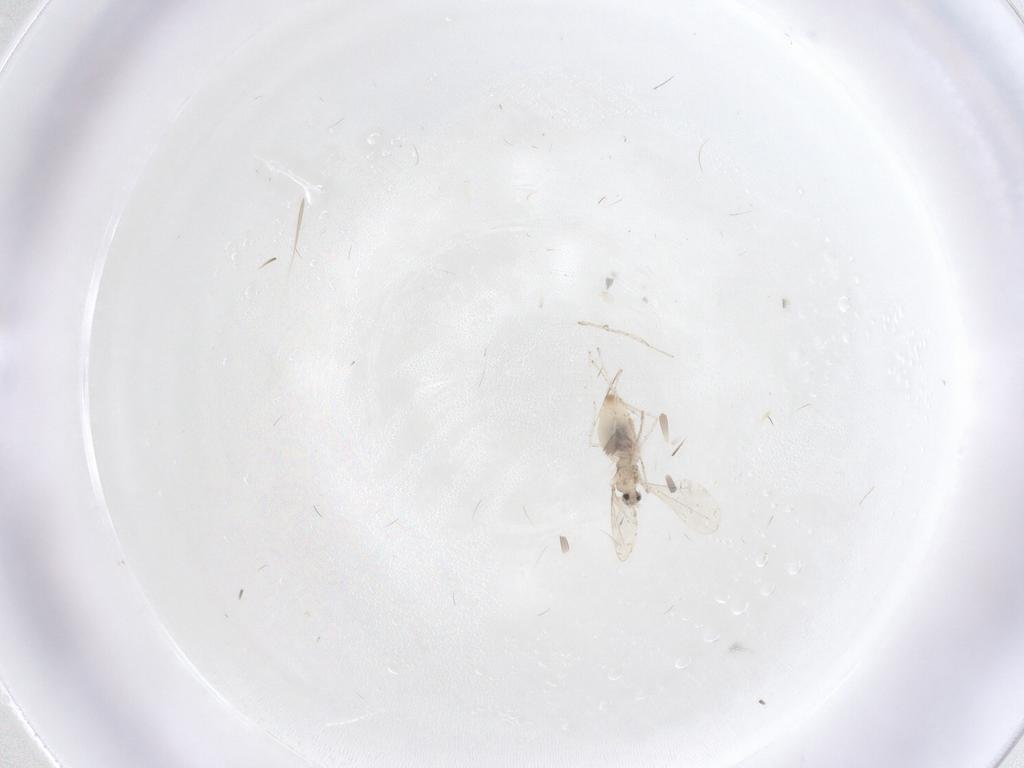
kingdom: Animalia
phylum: Arthropoda
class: Insecta
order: Diptera
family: Cecidomyiidae
